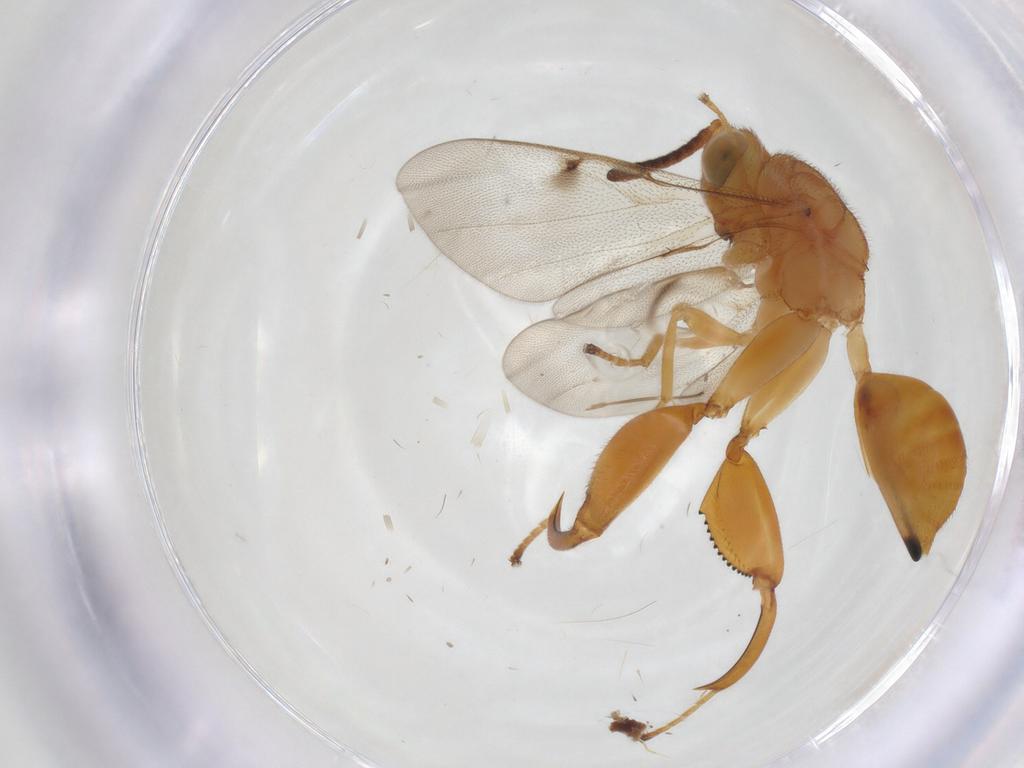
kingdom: Animalia
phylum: Arthropoda
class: Insecta
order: Hymenoptera
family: Chalcididae
